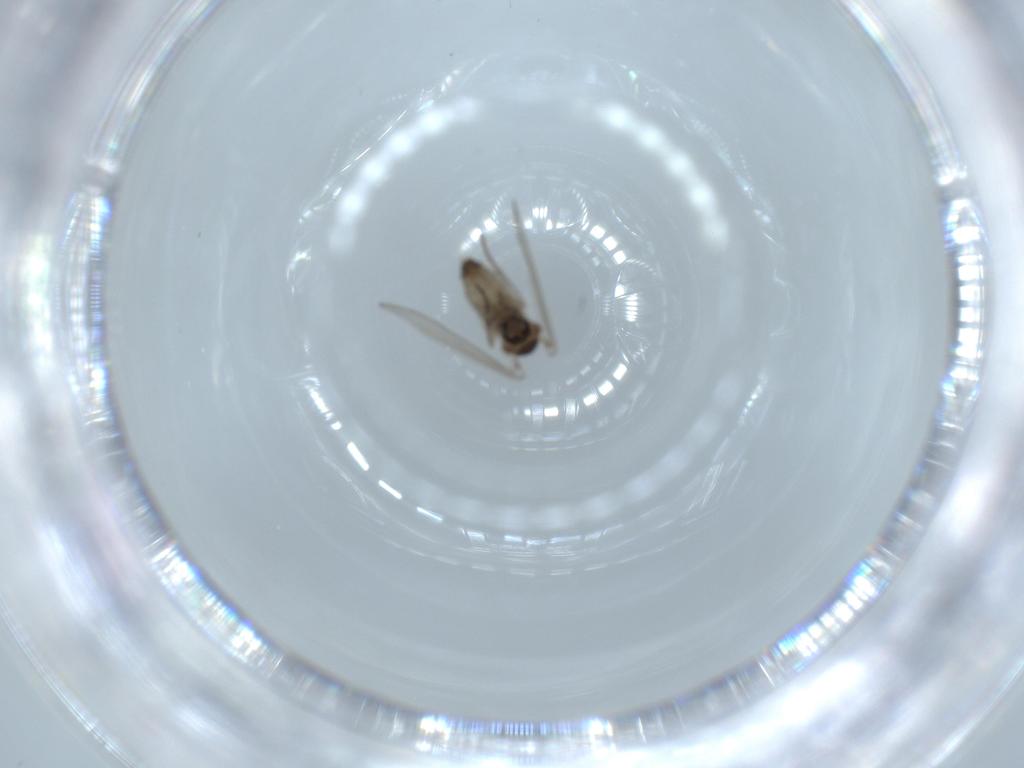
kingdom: Animalia
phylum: Arthropoda
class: Insecta
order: Diptera
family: Psychodidae
